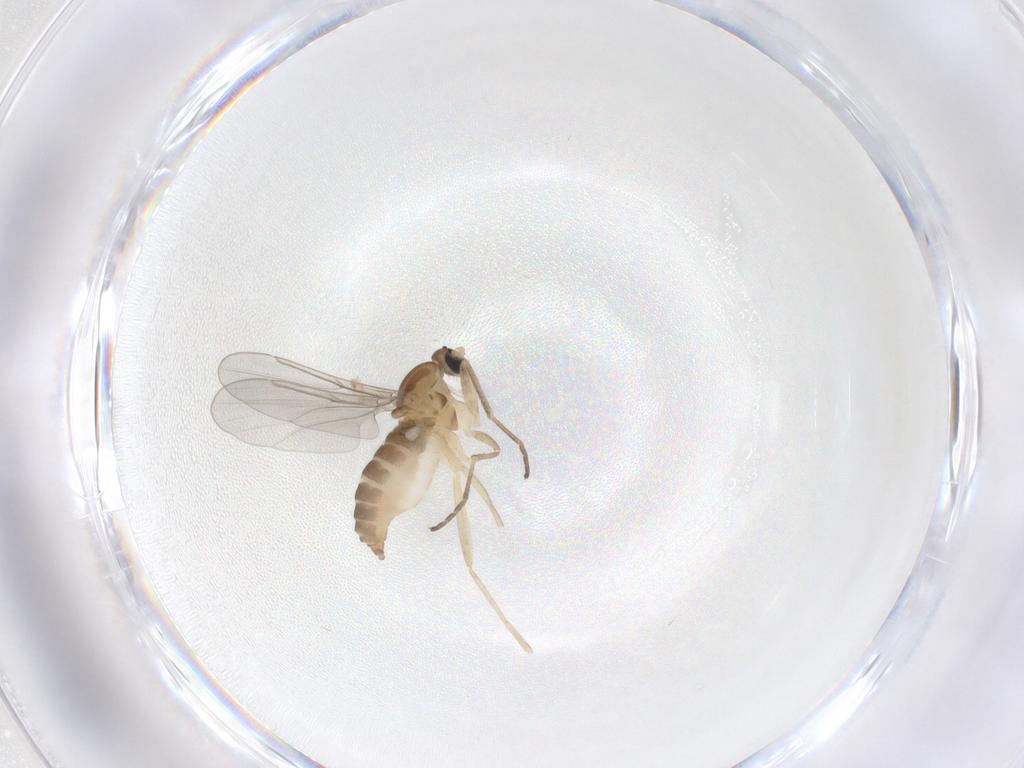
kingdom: Animalia
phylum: Arthropoda
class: Insecta
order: Diptera
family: Cecidomyiidae
